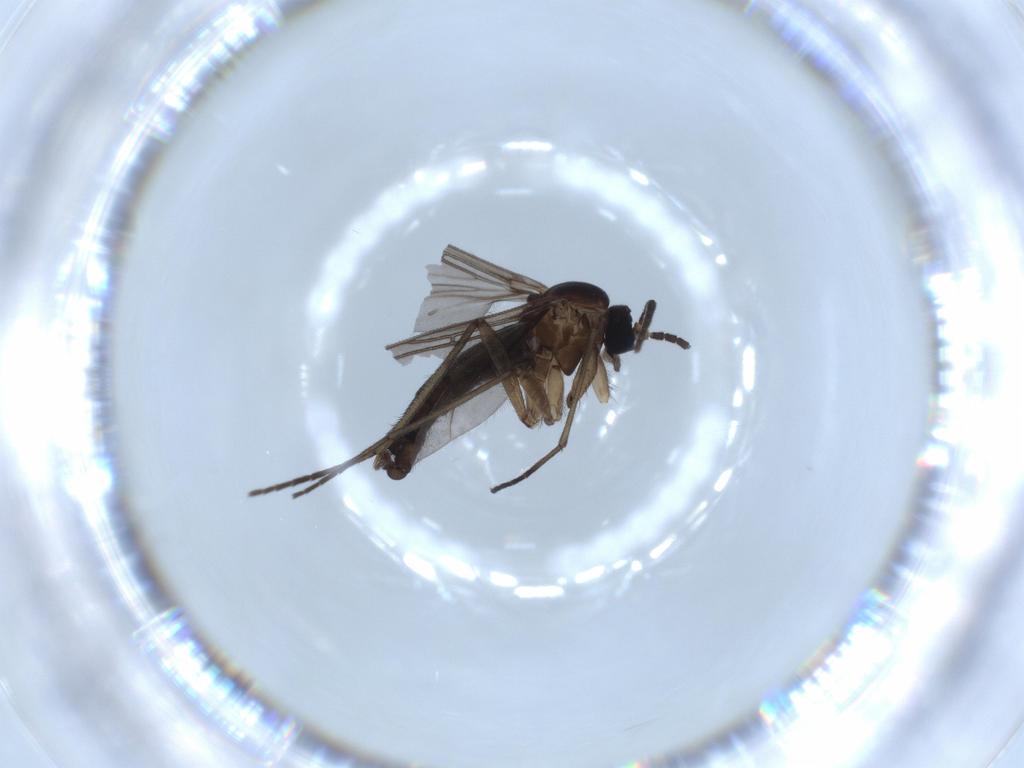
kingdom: Animalia
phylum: Arthropoda
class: Insecta
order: Diptera
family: Sciaridae
